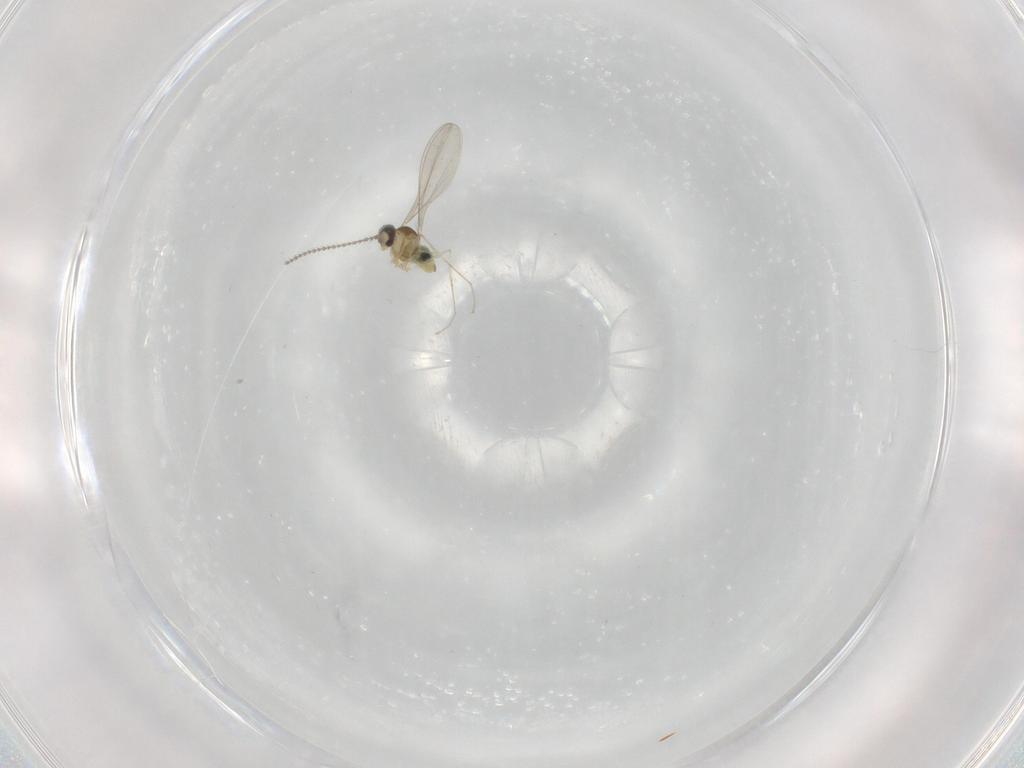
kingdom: Animalia
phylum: Arthropoda
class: Insecta
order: Diptera
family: Cecidomyiidae
